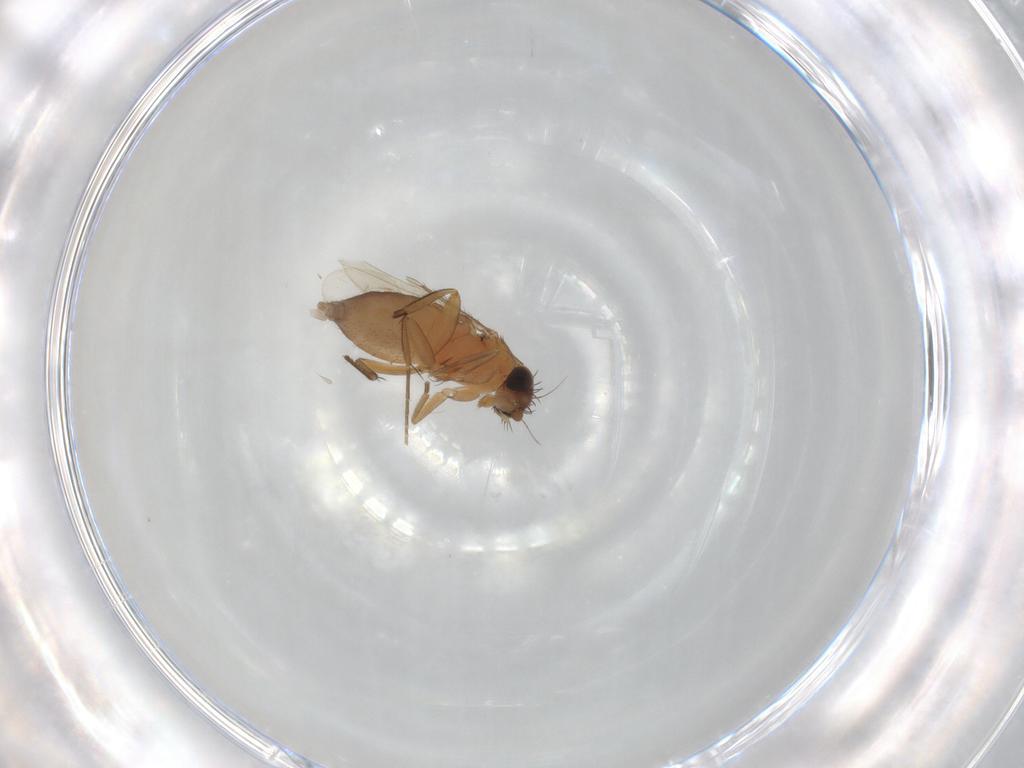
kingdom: Animalia
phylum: Arthropoda
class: Insecta
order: Diptera
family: Phoridae
